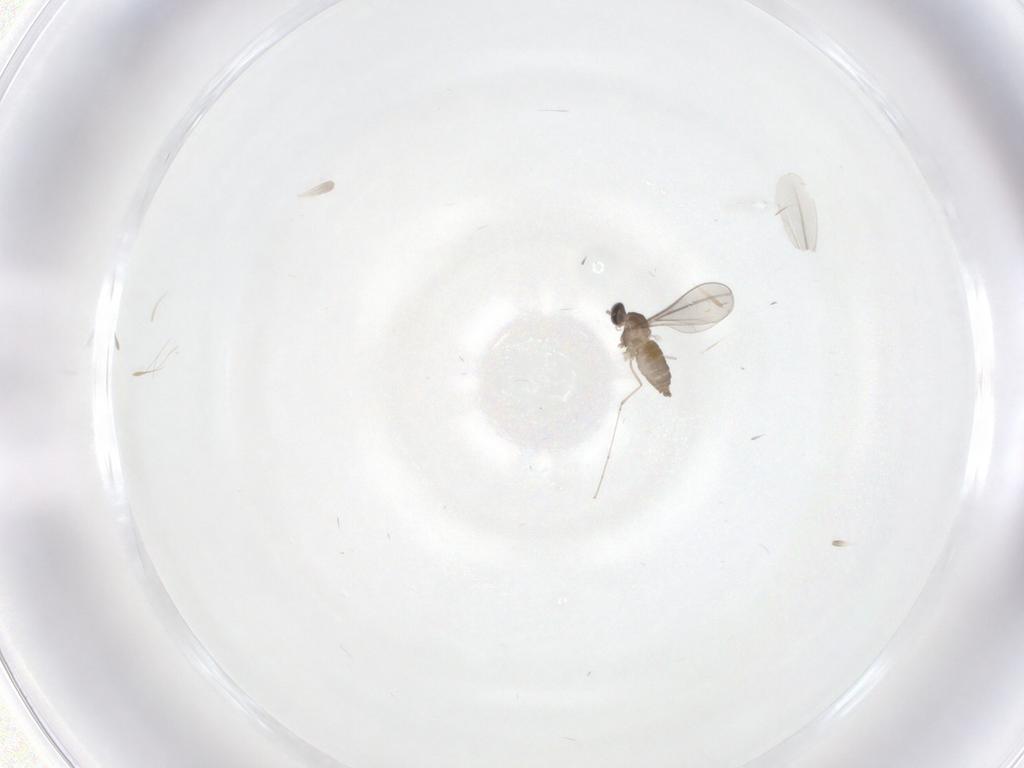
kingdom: Animalia
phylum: Arthropoda
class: Insecta
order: Diptera
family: Cecidomyiidae
